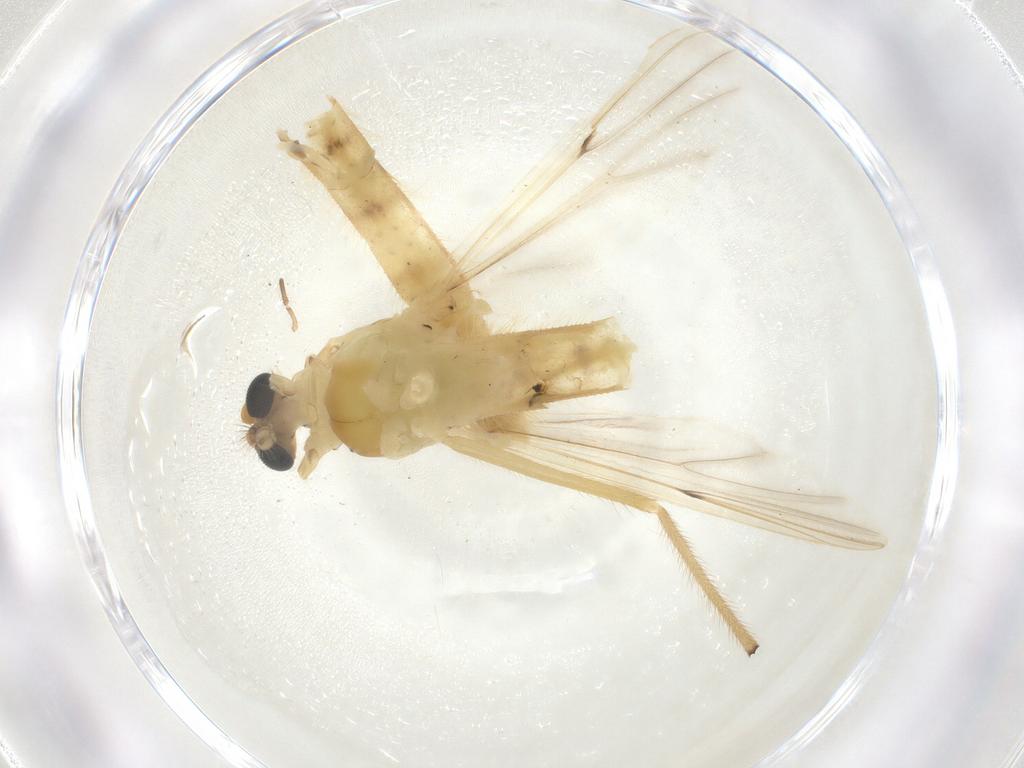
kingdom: Animalia
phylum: Arthropoda
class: Insecta
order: Diptera
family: Chironomidae
